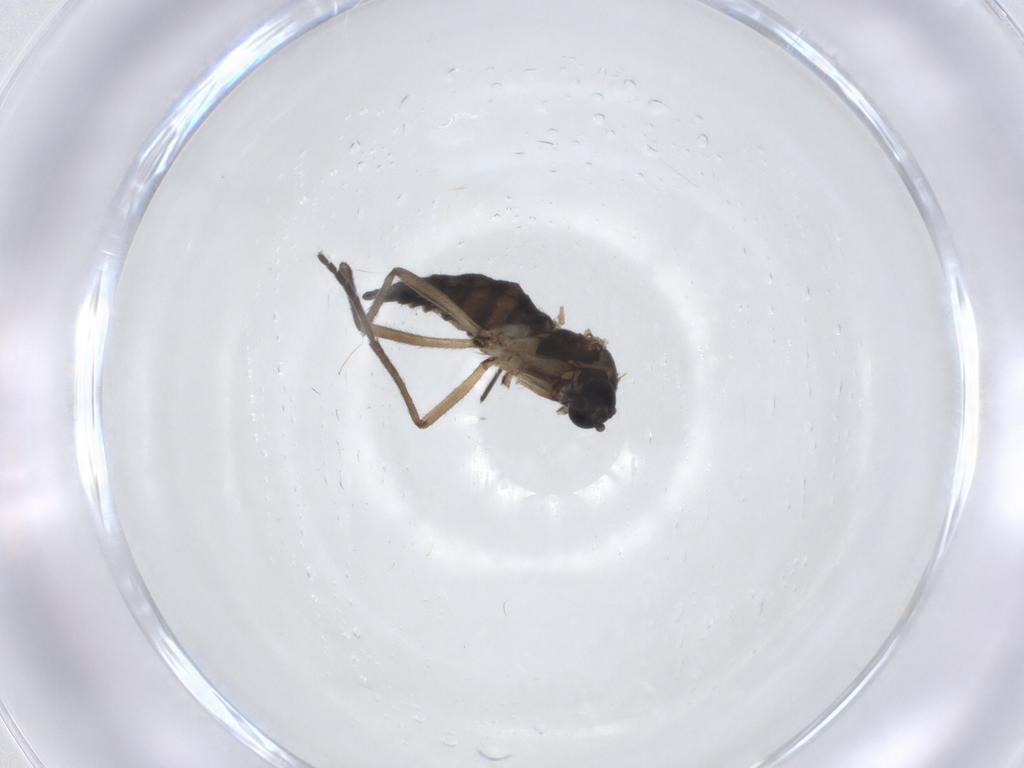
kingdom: Animalia
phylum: Arthropoda
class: Insecta
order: Diptera
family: Sciaridae
